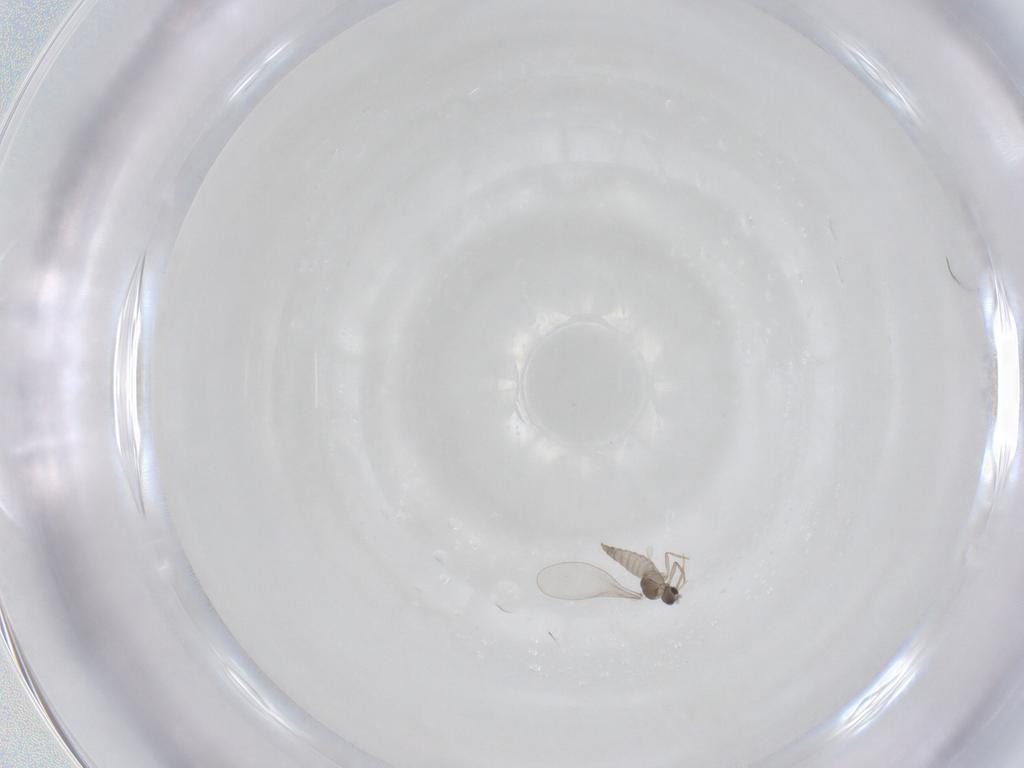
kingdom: Animalia
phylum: Arthropoda
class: Insecta
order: Diptera
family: Cecidomyiidae
